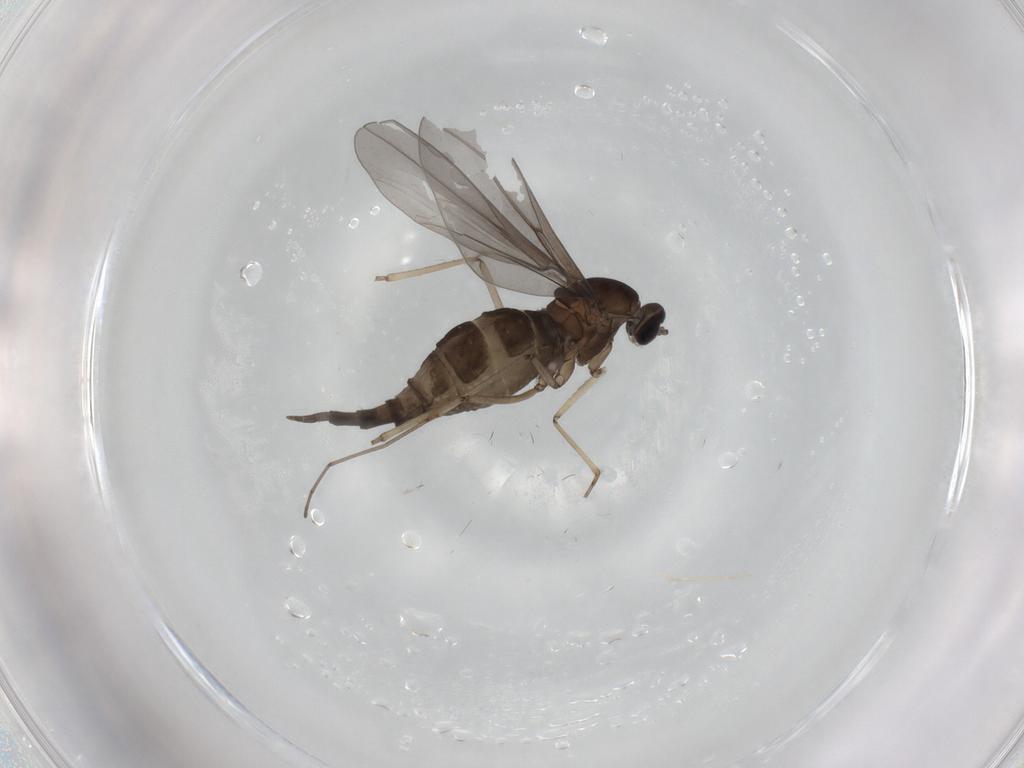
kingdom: Animalia
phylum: Arthropoda
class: Insecta
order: Diptera
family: Cecidomyiidae
